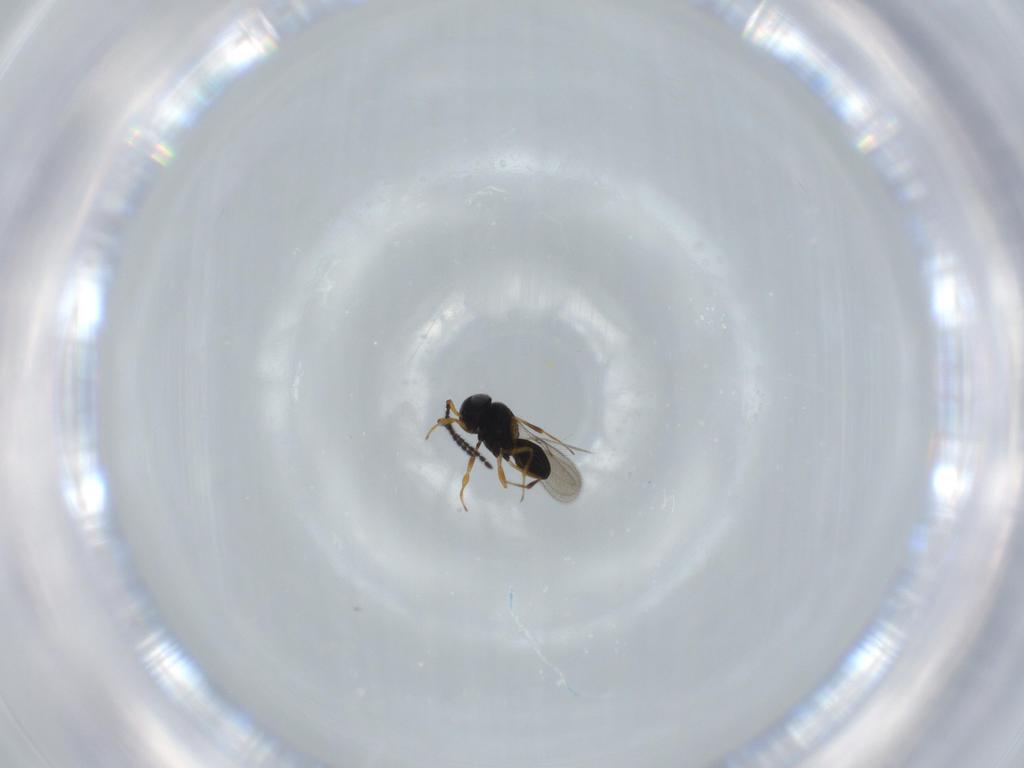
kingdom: Animalia
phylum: Arthropoda
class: Insecta
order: Hymenoptera
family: Scelionidae
